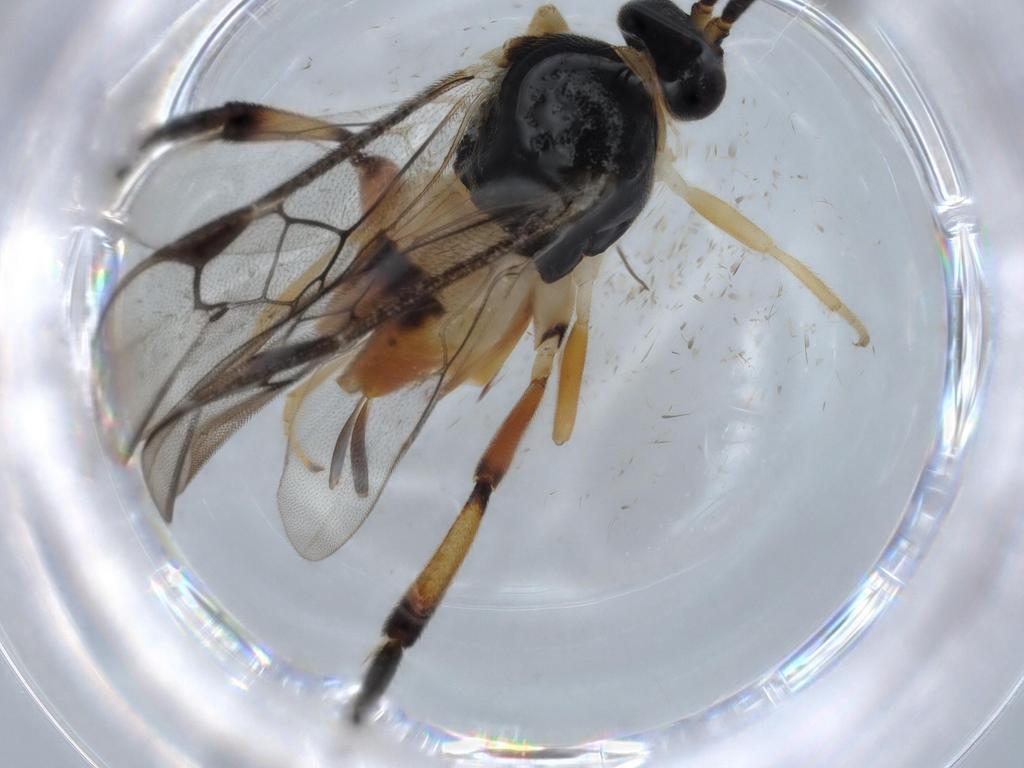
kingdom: Animalia
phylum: Arthropoda
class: Insecta
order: Hymenoptera
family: Braconidae
